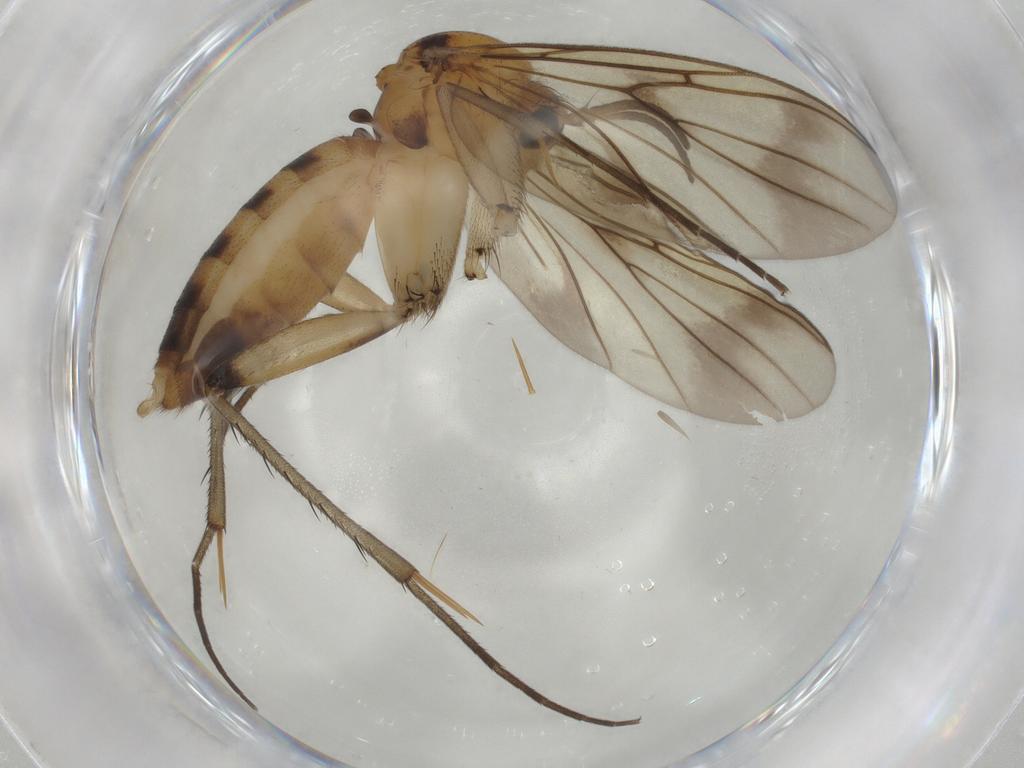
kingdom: Animalia
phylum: Arthropoda
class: Insecta
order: Diptera
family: Mycetophilidae
